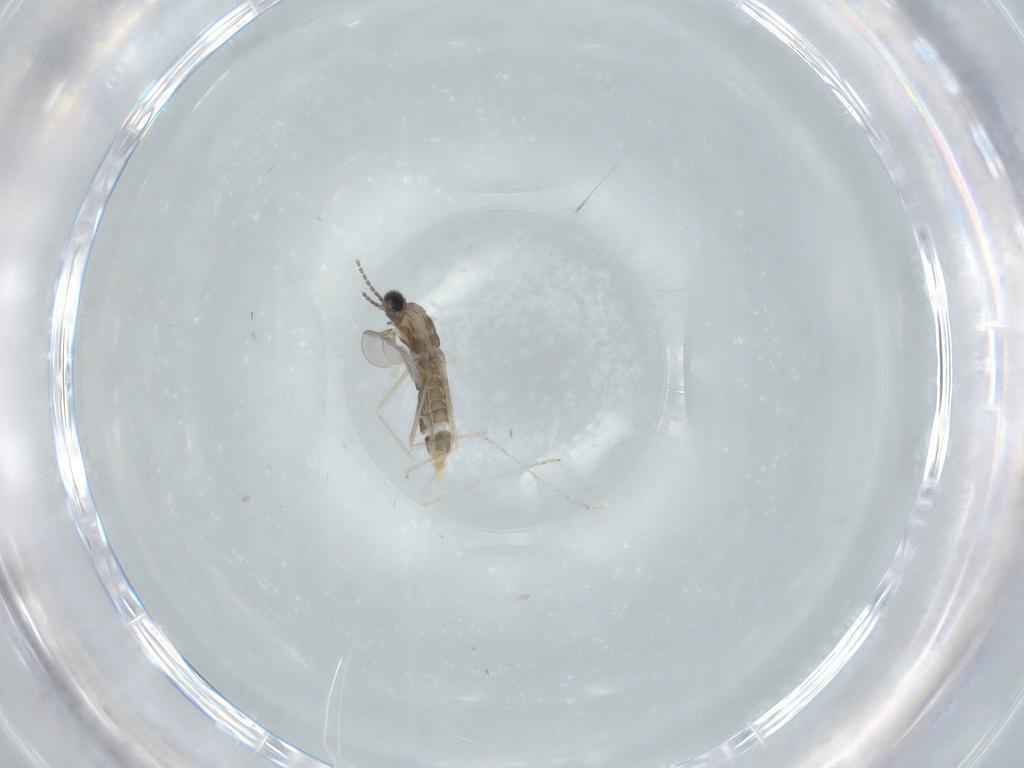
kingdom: Animalia
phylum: Arthropoda
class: Insecta
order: Diptera
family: Cecidomyiidae
